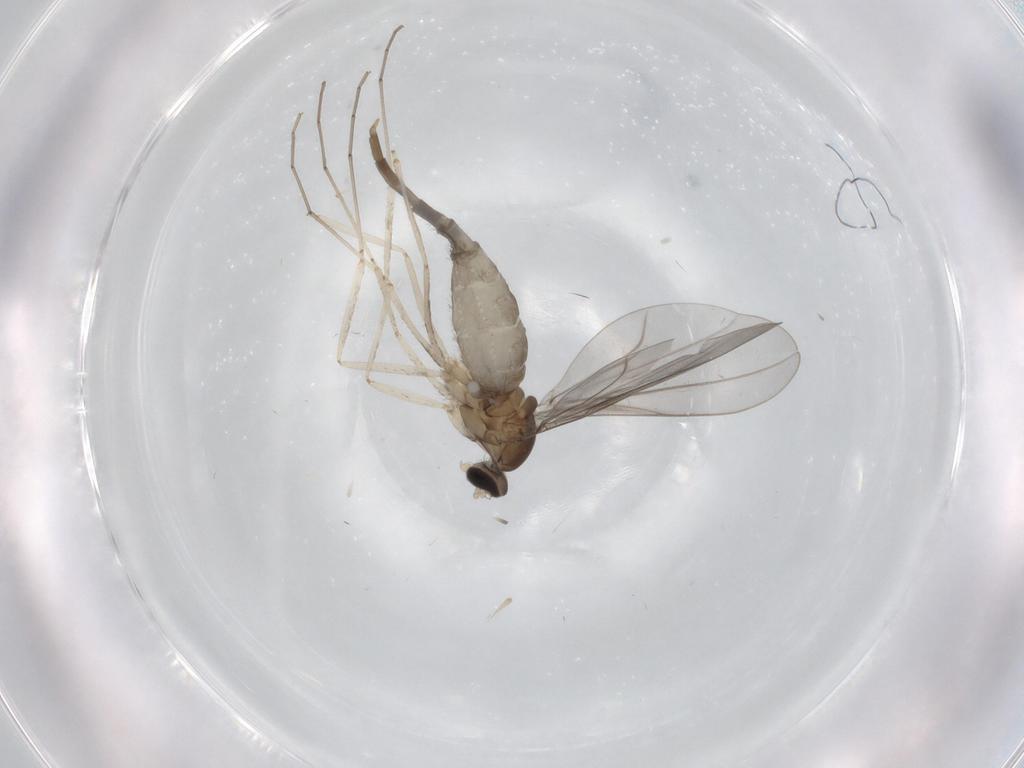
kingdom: Animalia
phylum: Arthropoda
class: Insecta
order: Diptera
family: Cecidomyiidae
